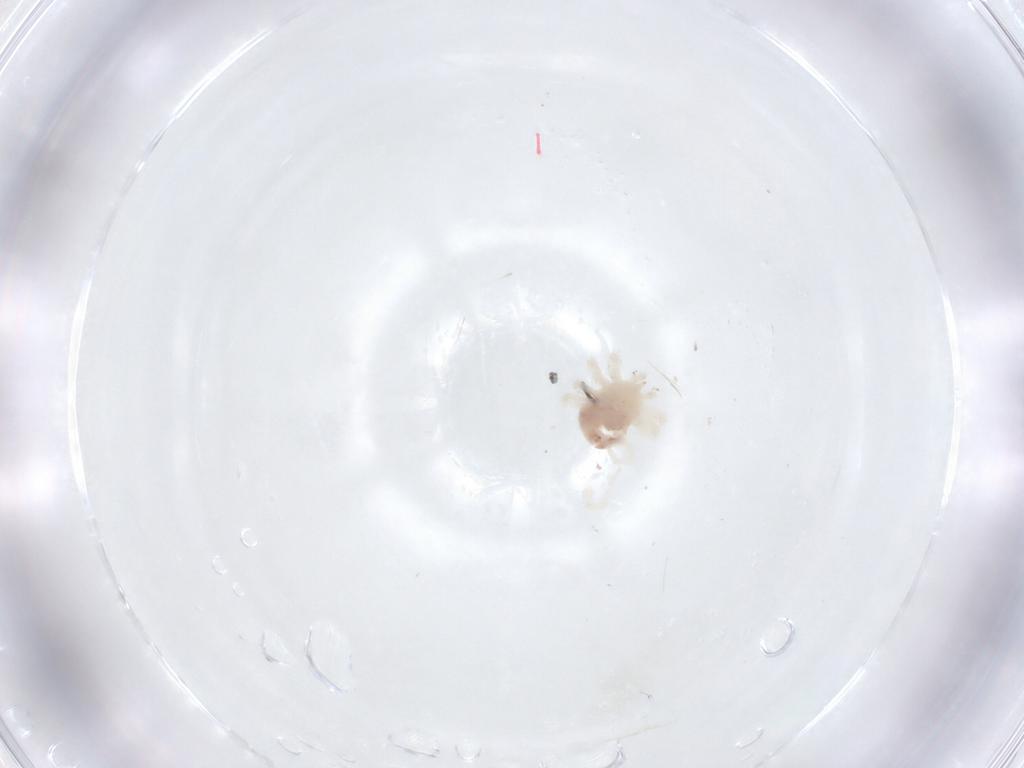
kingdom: Animalia
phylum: Arthropoda
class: Arachnida
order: Trombidiformes
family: Anystidae
